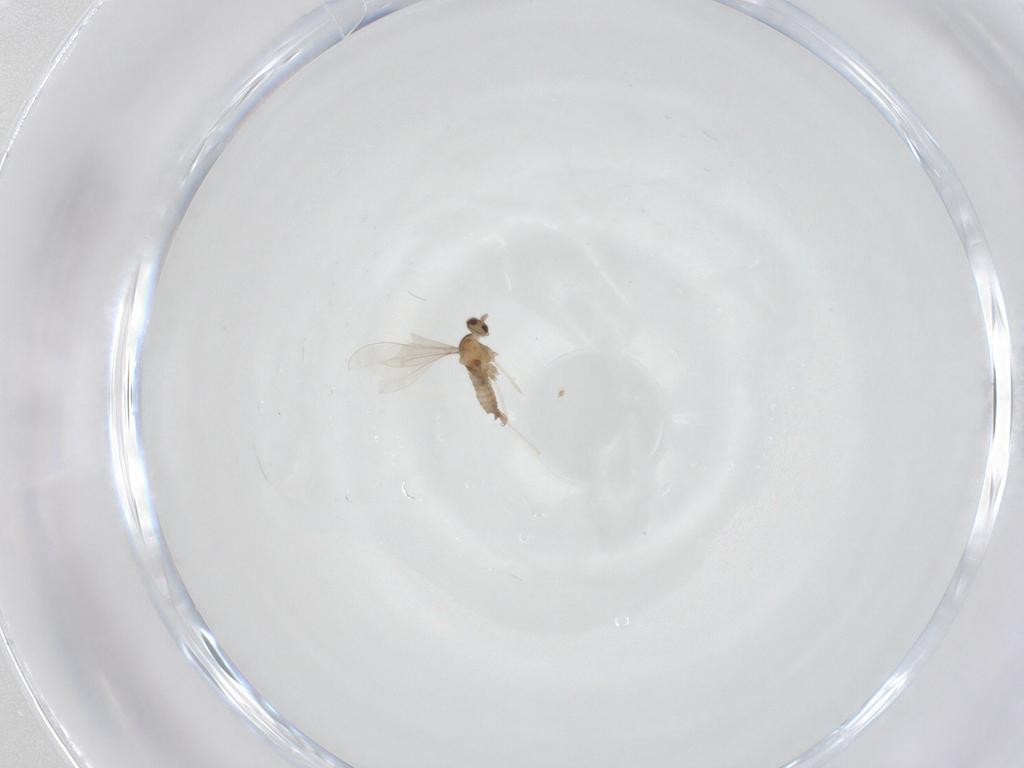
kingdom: Animalia
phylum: Arthropoda
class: Insecta
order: Diptera
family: Cecidomyiidae
